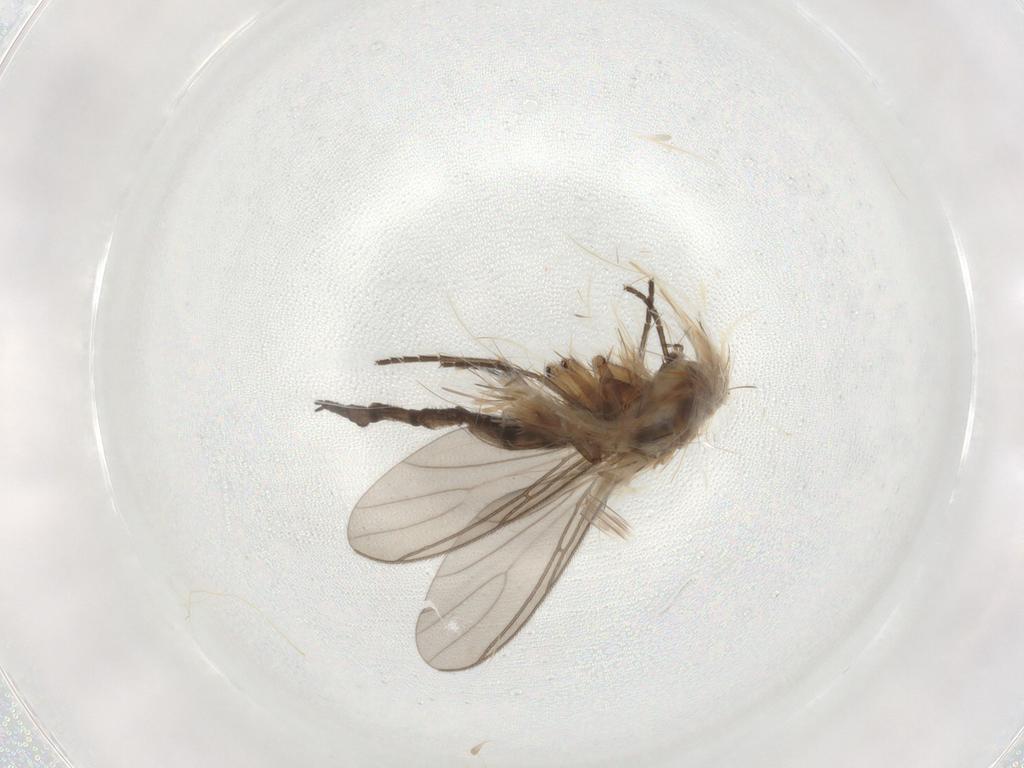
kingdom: Animalia
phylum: Arthropoda
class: Insecta
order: Diptera
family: Sciaridae
